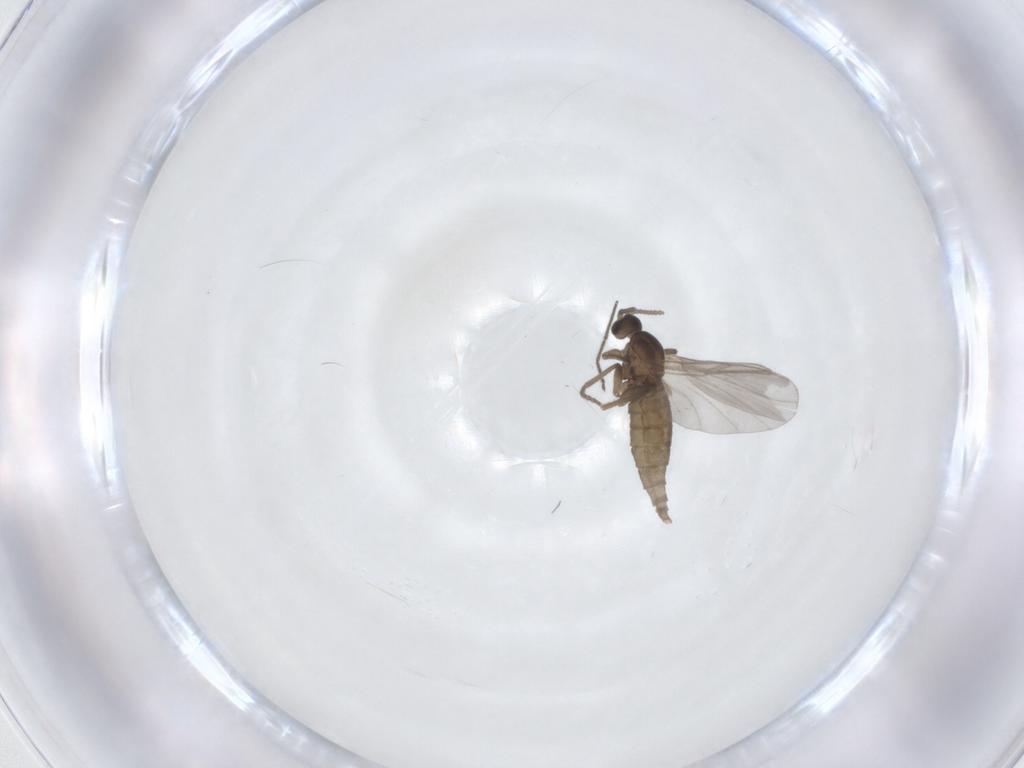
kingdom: Animalia
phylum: Arthropoda
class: Insecta
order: Diptera
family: Cecidomyiidae
